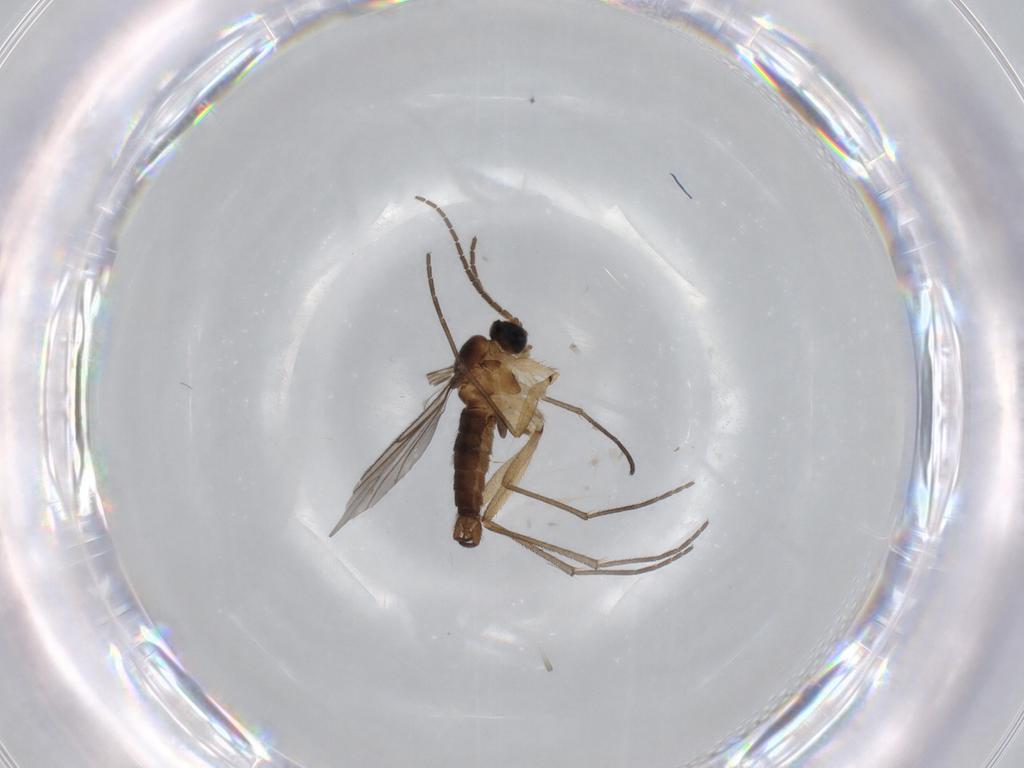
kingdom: Animalia
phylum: Arthropoda
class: Insecta
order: Diptera
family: Sciaridae
